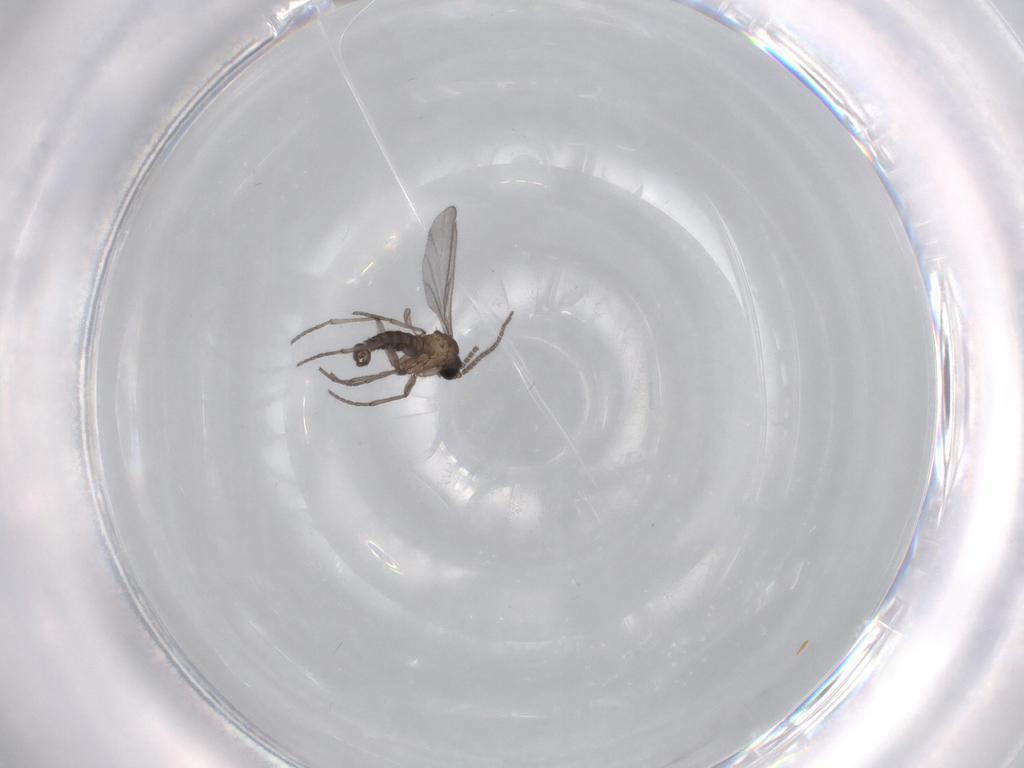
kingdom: Animalia
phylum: Arthropoda
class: Insecta
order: Diptera
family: Sciaridae
